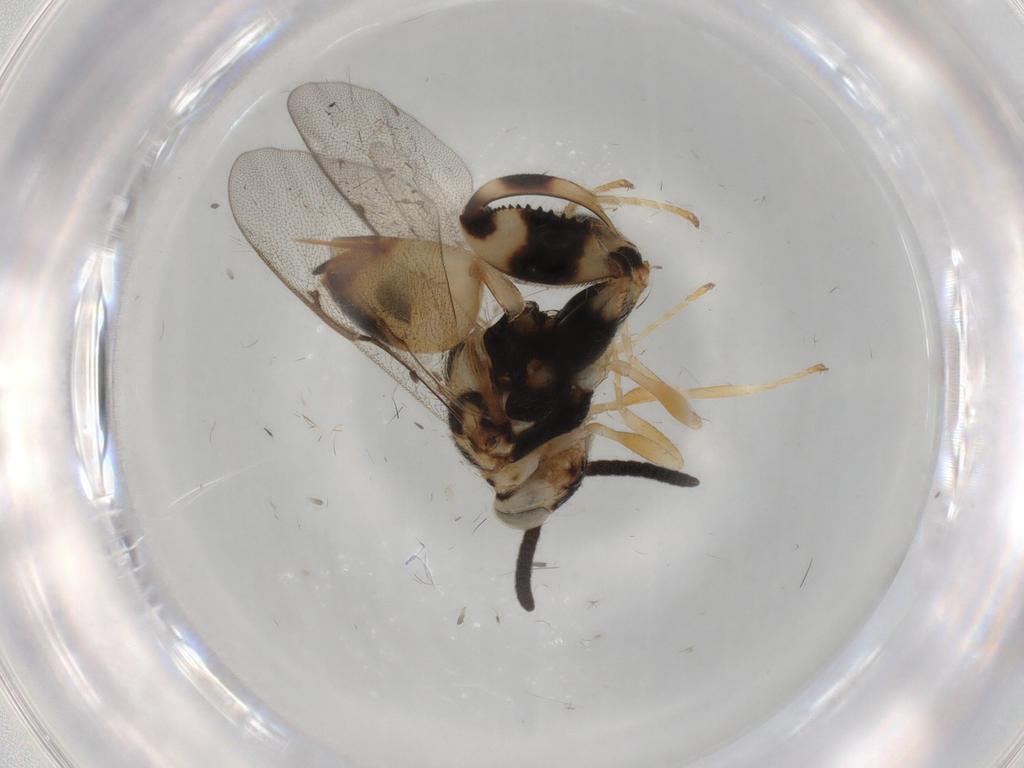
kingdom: Animalia
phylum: Arthropoda
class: Insecta
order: Hymenoptera
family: Chalcididae
